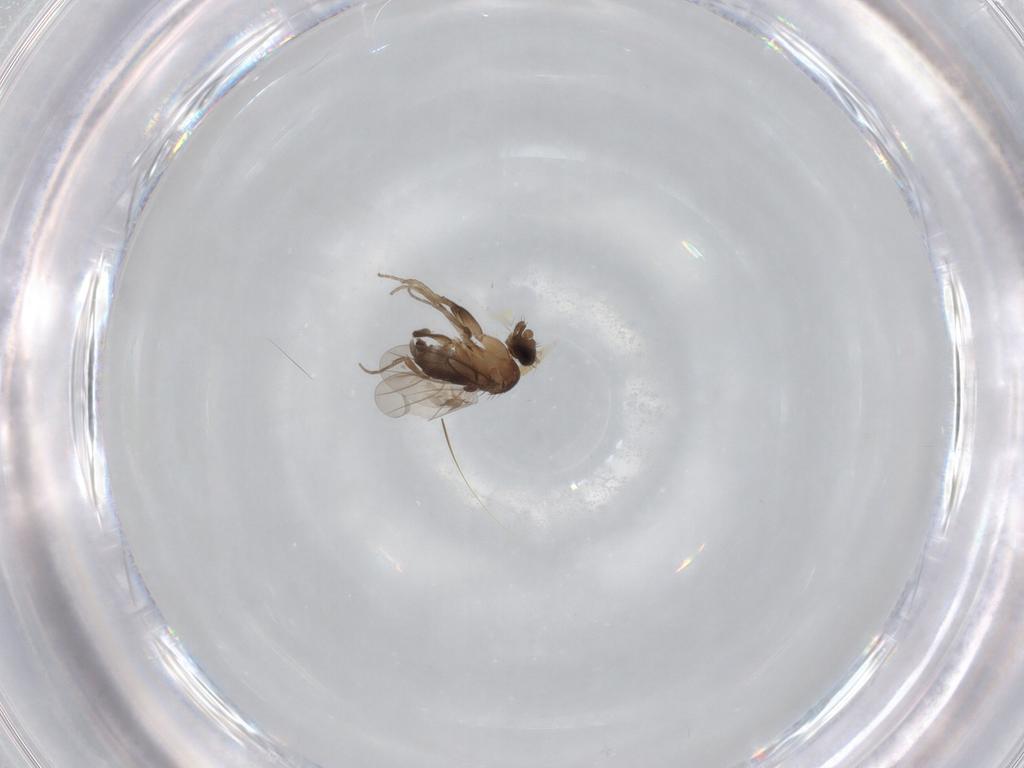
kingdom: Animalia
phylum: Arthropoda
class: Insecta
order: Diptera
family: Phoridae
